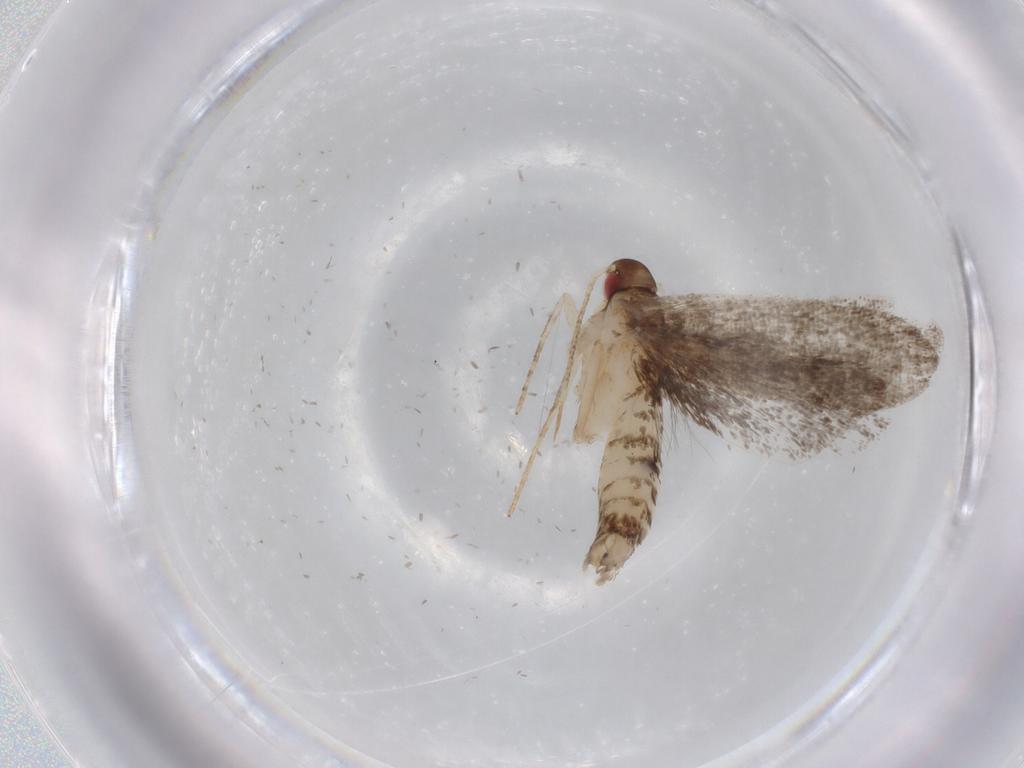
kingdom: Animalia
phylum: Arthropoda
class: Insecta
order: Lepidoptera
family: Gelechiidae
